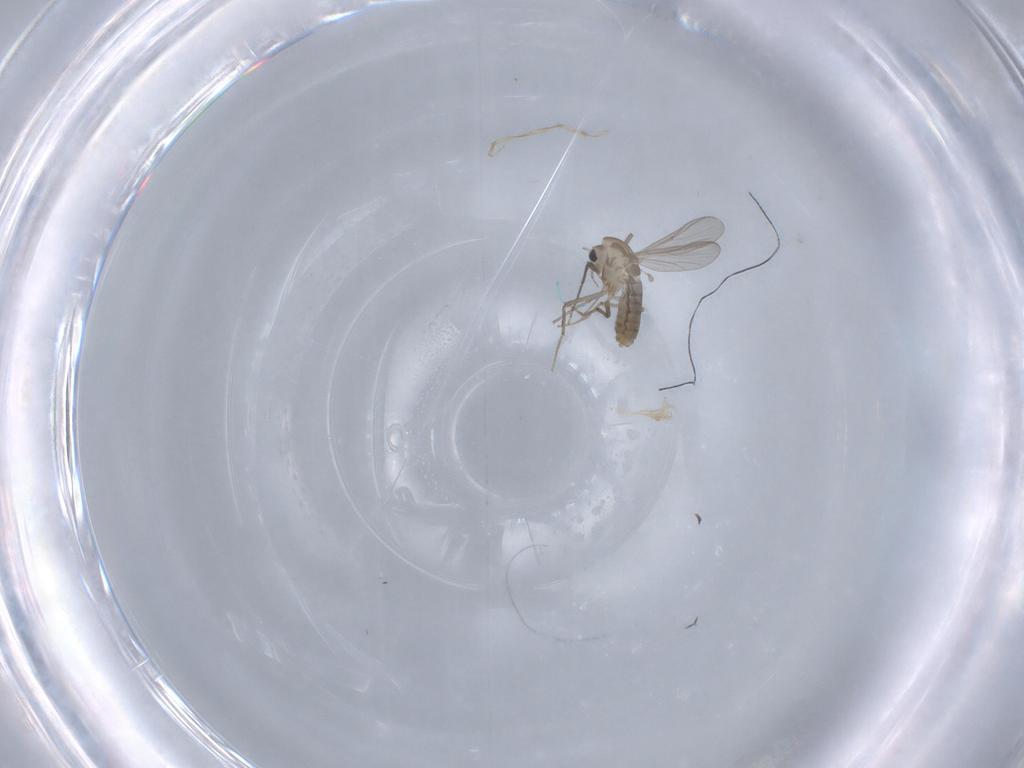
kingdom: Animalia
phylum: Arthropoda
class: Insecta
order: Diptera
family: Chironomidae
